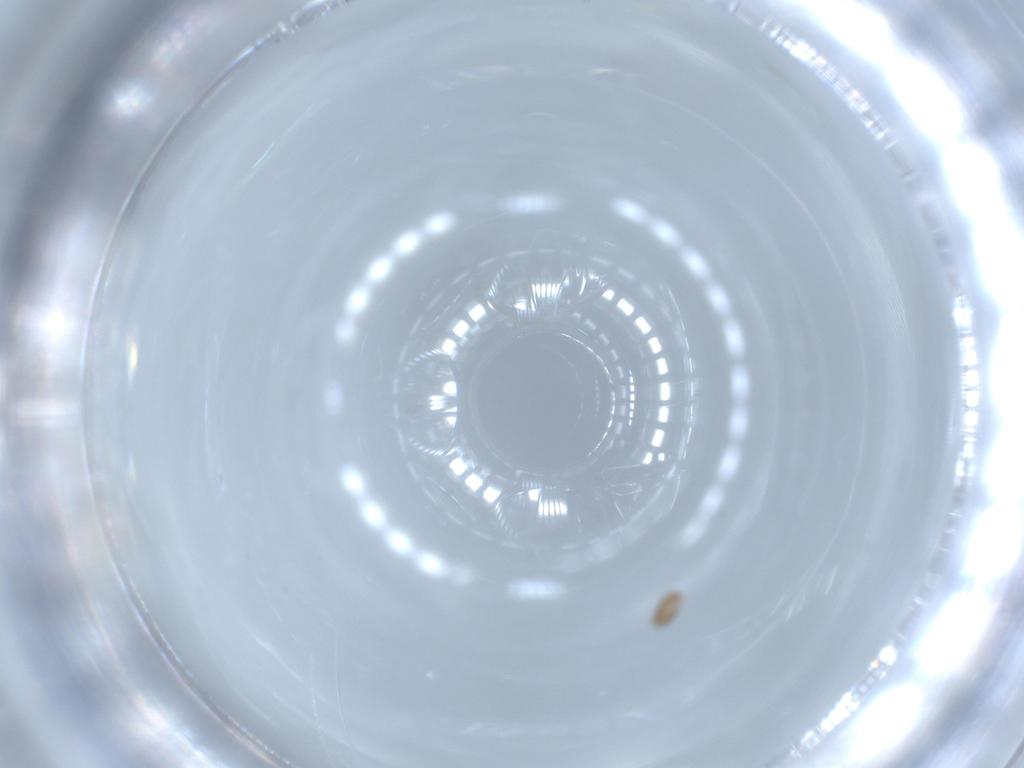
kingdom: Animalia
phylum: Arthropoda
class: Insecta
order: Thysanoptera
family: Phlaeothripidae
